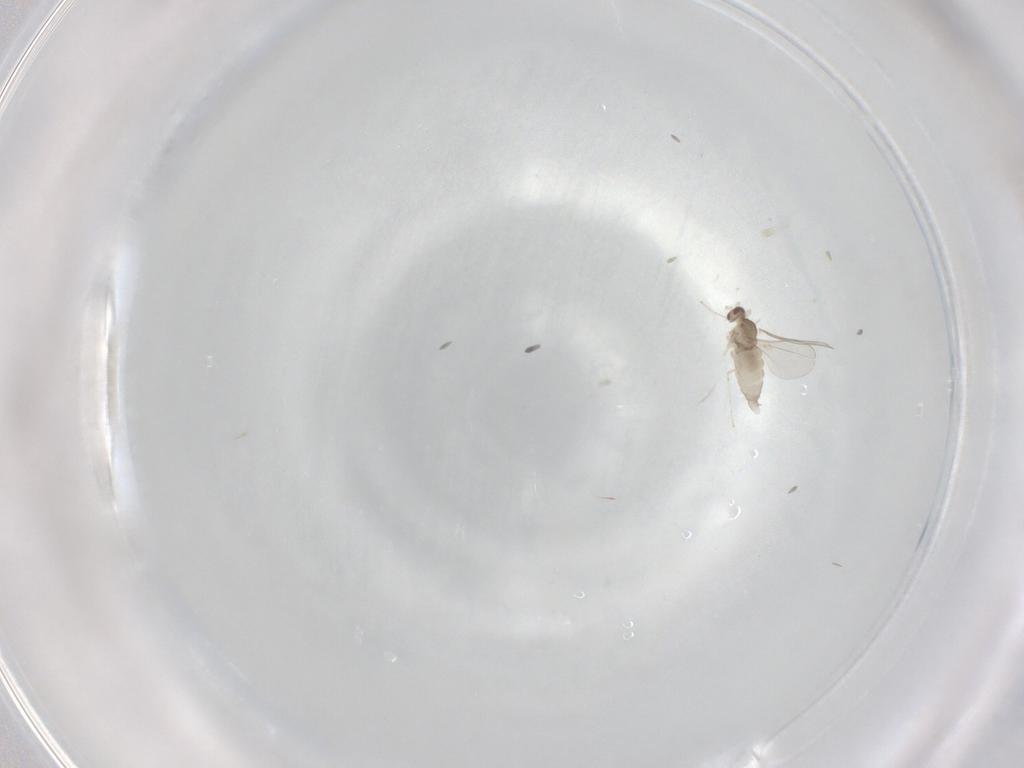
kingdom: Animalia
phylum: Arthropoda
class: Insecta
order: Diptera
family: Cecidomyiidae
